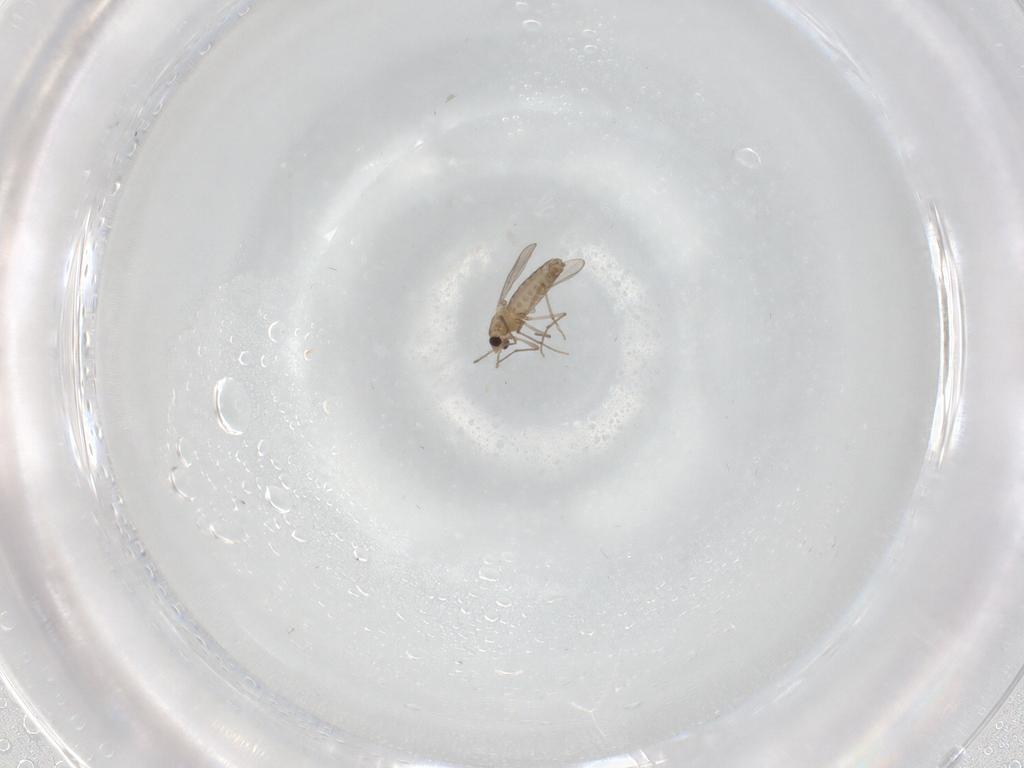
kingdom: Animalia
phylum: Arthropoda
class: Insecta
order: Diptera
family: Chironomidae
